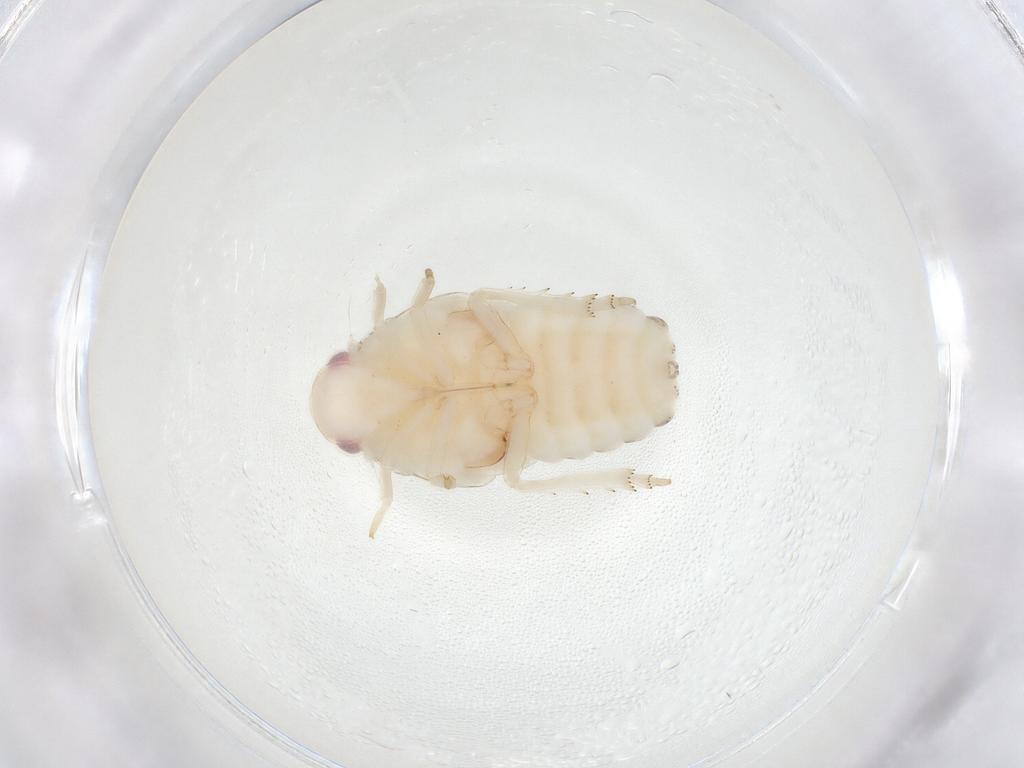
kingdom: Animalia
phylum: Arthropoda
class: Insecta
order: Hemiptera
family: Flatidae
